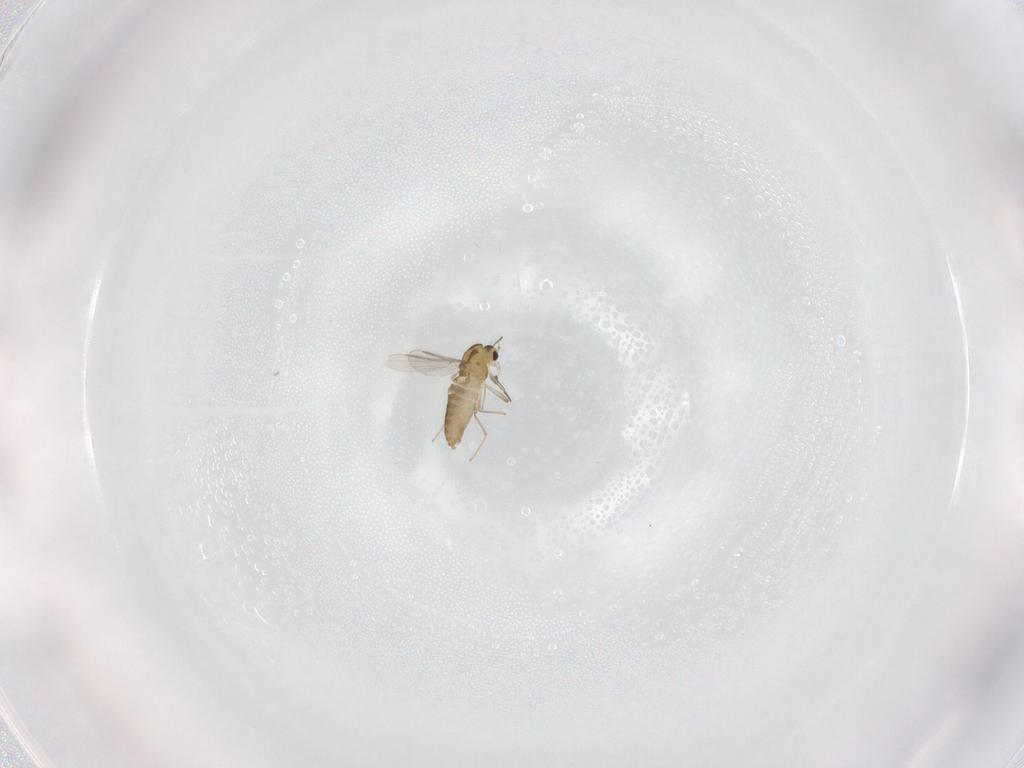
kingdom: Animalia
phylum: Arthropoda
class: Insecta
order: Diptera
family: Chironomidae
